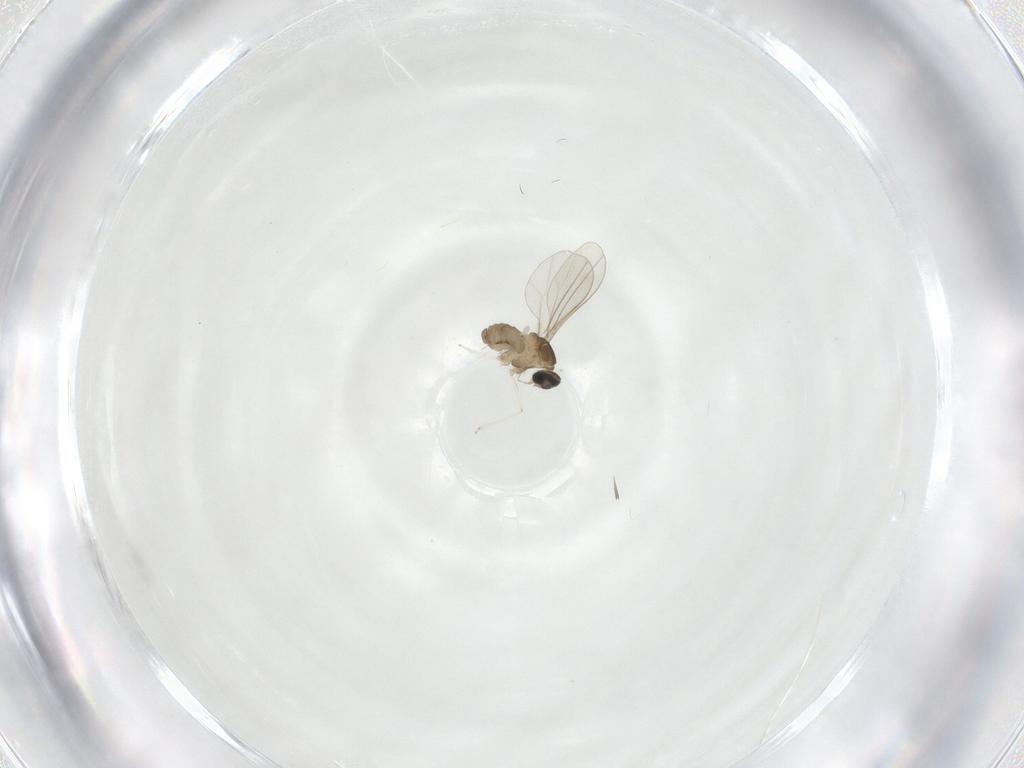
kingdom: Animalia
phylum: Arthropoda
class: Insecta
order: Diptera
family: Cecidomyiidae
